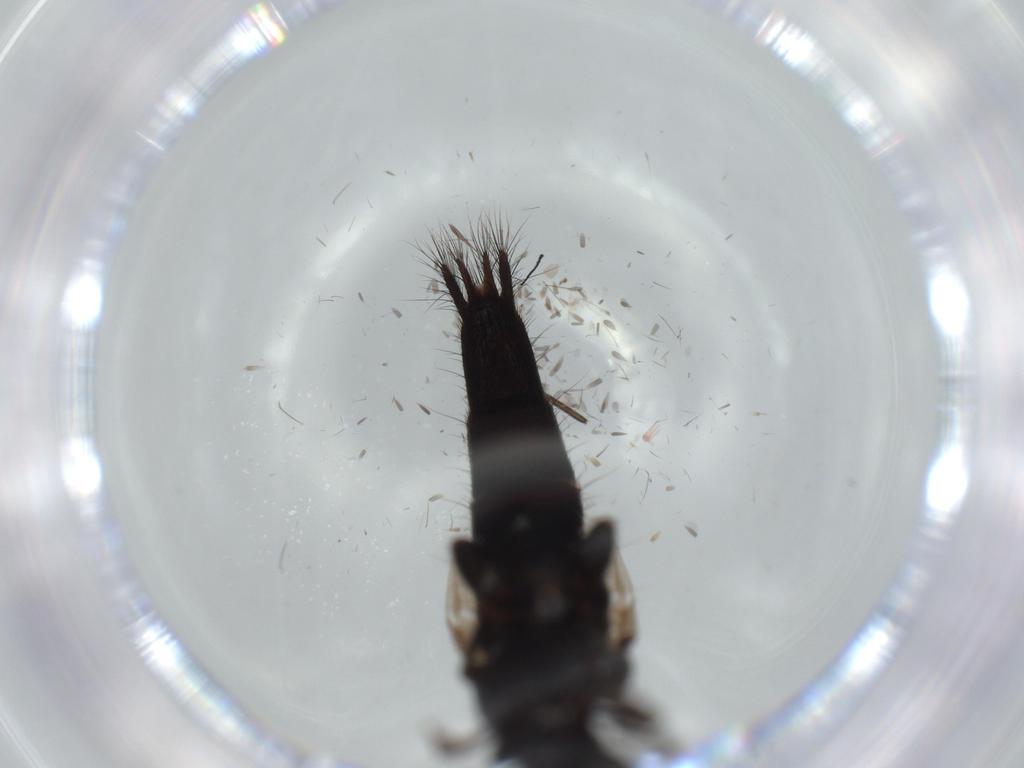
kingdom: Animalia
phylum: Arthropoda
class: Insecta
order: Coleoptera
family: Staphylinidae
